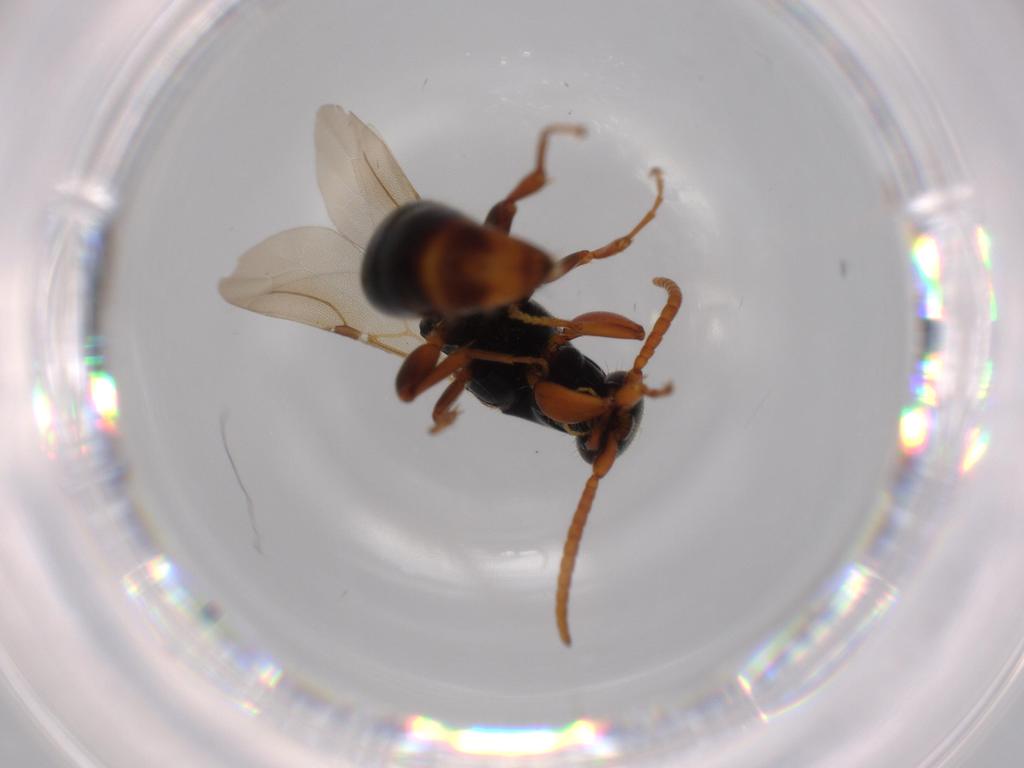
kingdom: Animalia
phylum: Arthropoda
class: Insecta
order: Hymenoptera
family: Bethylidae
